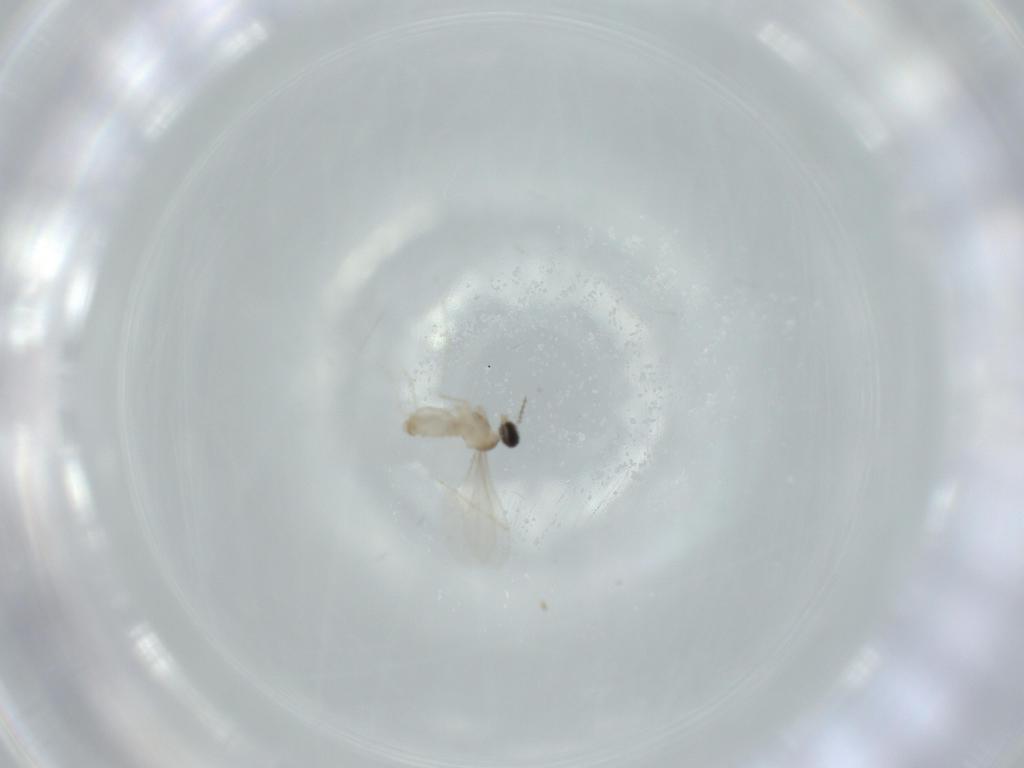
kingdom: Animalia
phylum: Arthropoda
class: Insecta
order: Diptera
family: Cecidomyiidae
